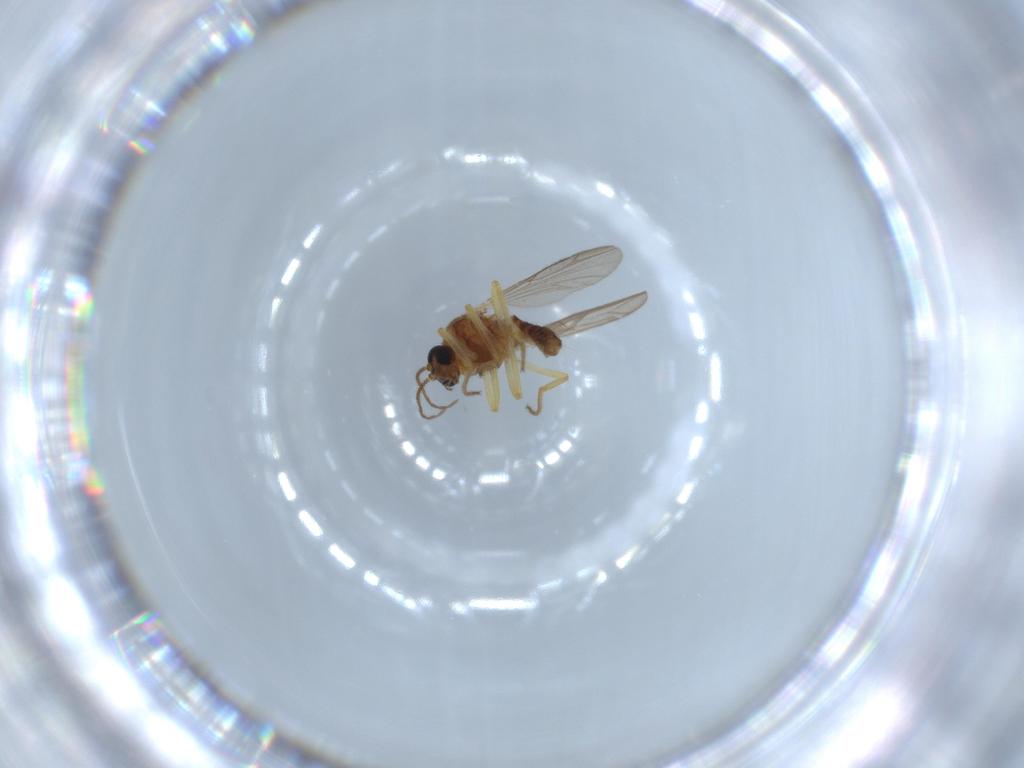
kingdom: Animalia
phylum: Arthropoda
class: Insecta
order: Diptera
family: Ceratopogonidae
